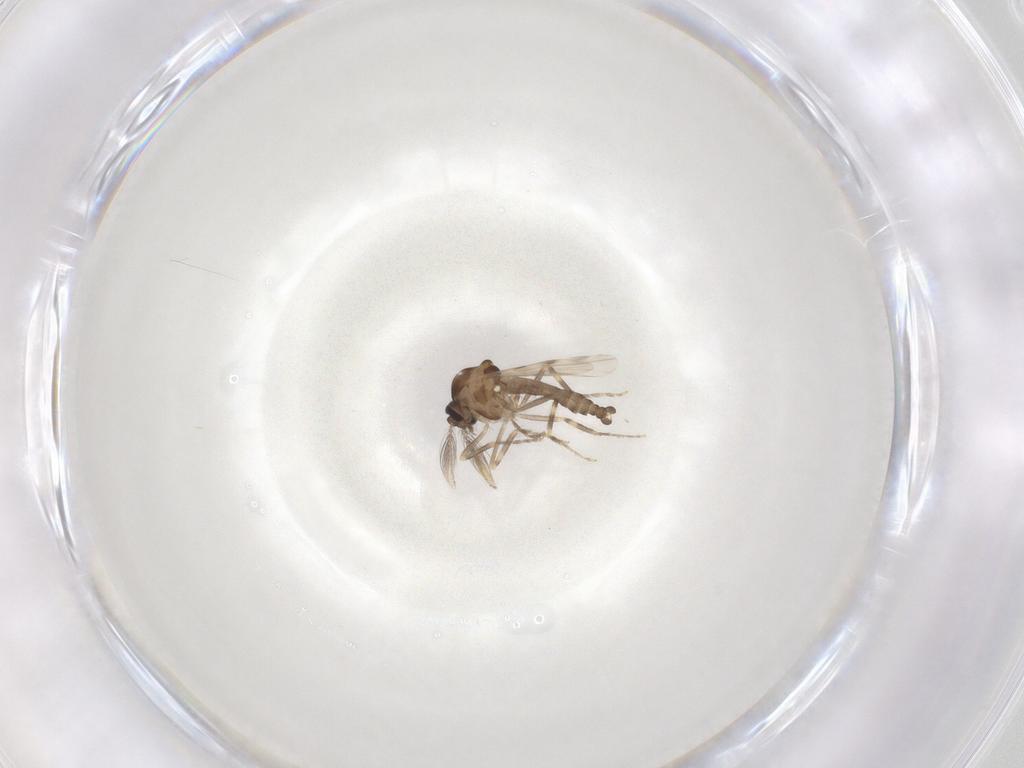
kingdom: Animalia
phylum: Arthropoda
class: Insecta
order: Diptera
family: Ceratopogonidae
